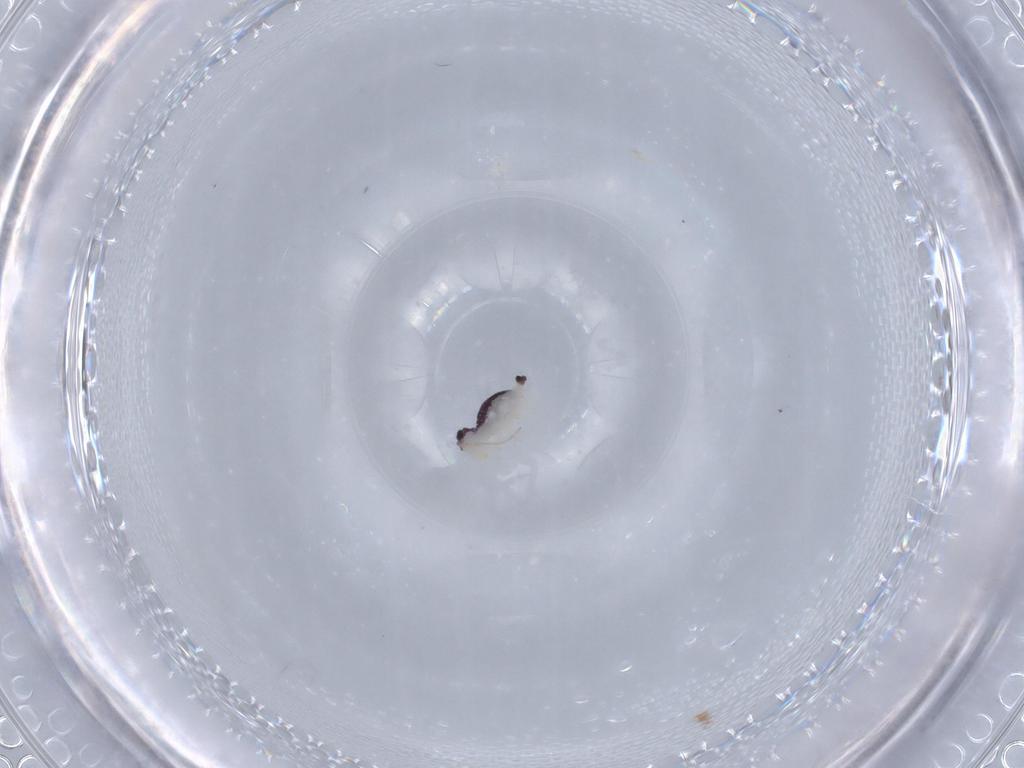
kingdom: Animalia
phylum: Arthropoda
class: Collembola
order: Symphypleona
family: Bourletiellidae
